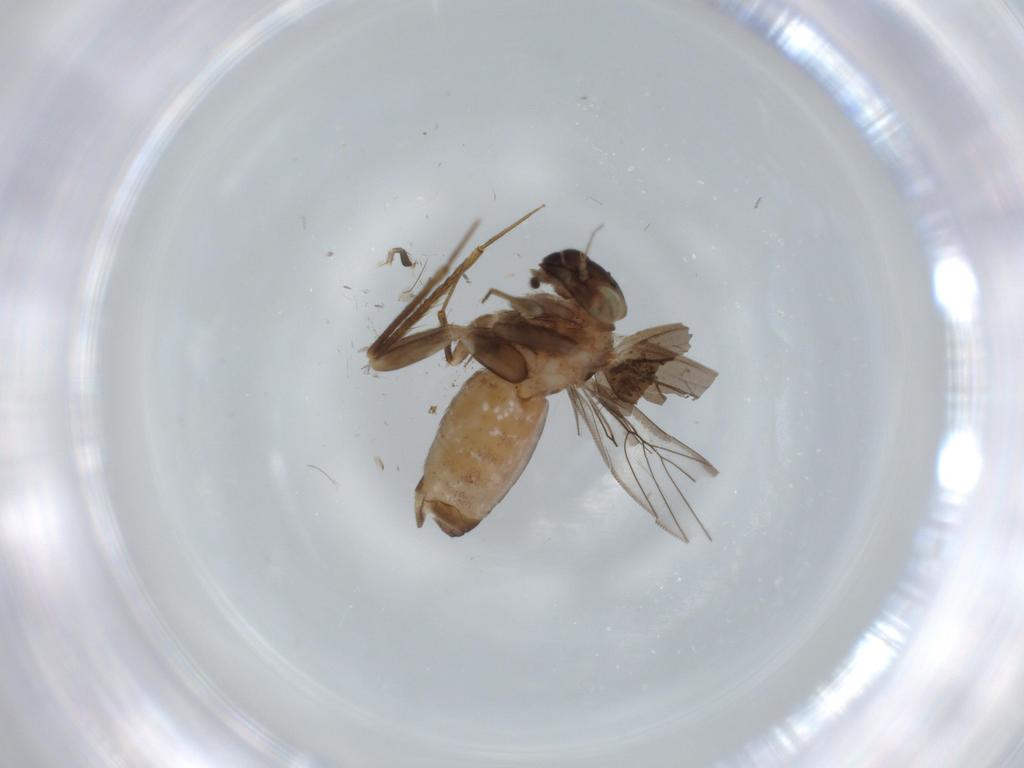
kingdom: Animalia
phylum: Arthropoda
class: Insecta
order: Psocodea
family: Lepidopsocidae
